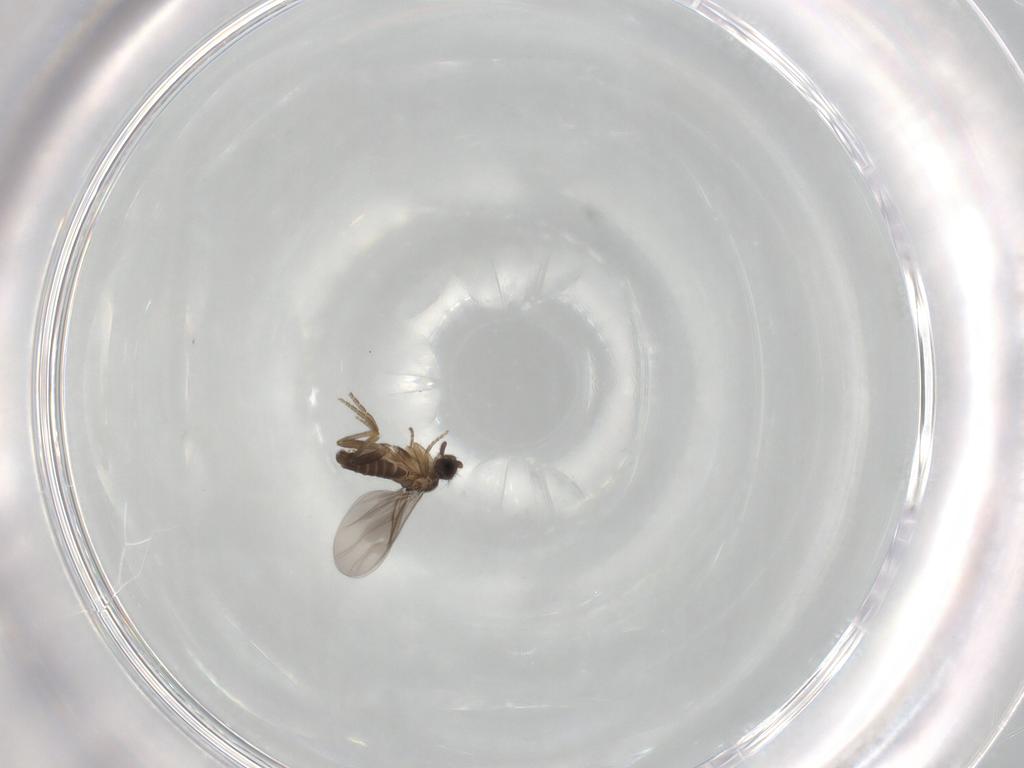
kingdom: Animalia
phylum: Arthropoda
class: Insecta
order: Diptera
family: Phoridae
